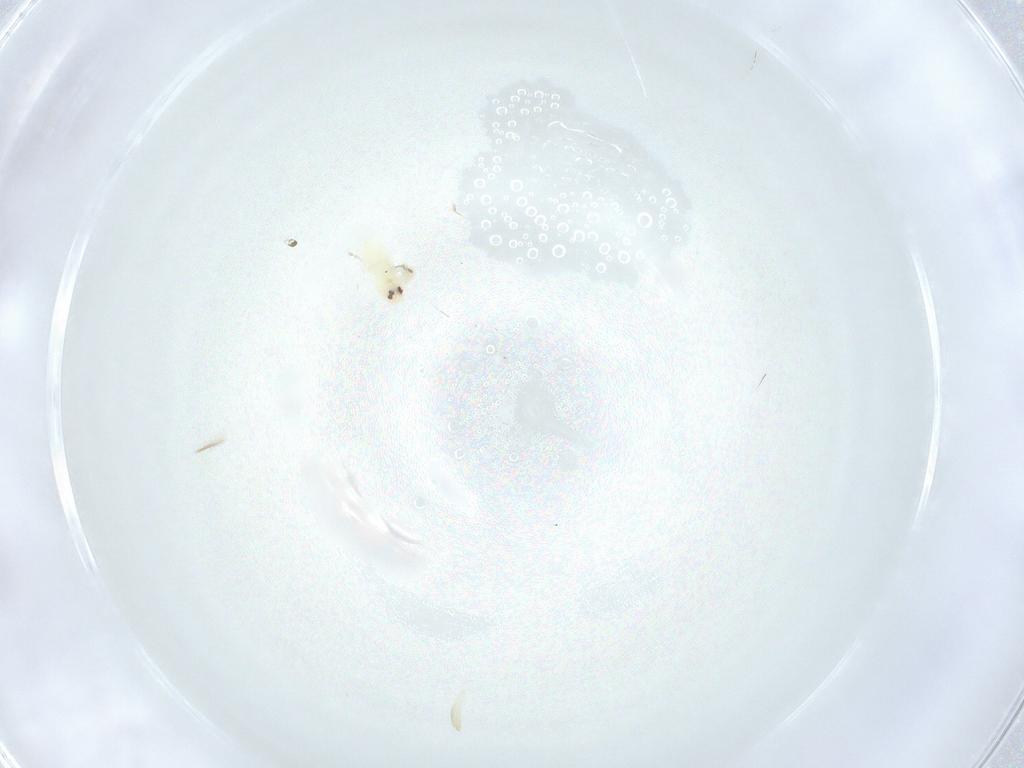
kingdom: Animalia
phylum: Arthropoda
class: Insecta
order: Lepidoptera
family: Gelechiidae
